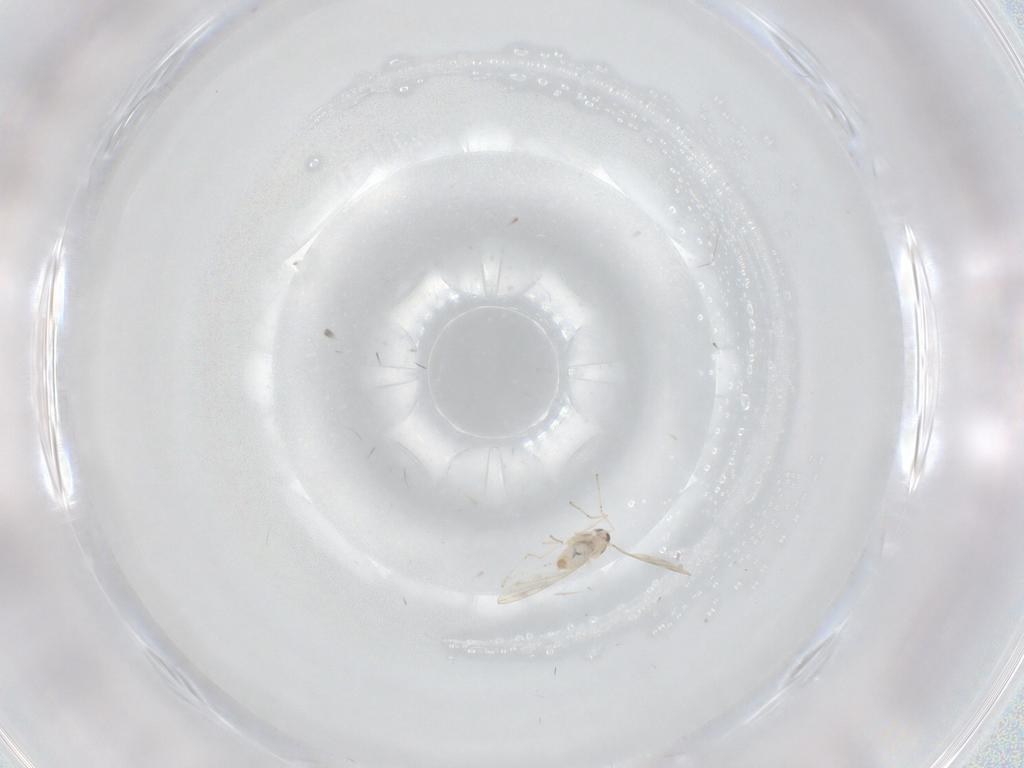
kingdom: Animalia
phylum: Arthropoda
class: Insecta
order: Diptera
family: Cecidomyiidae
